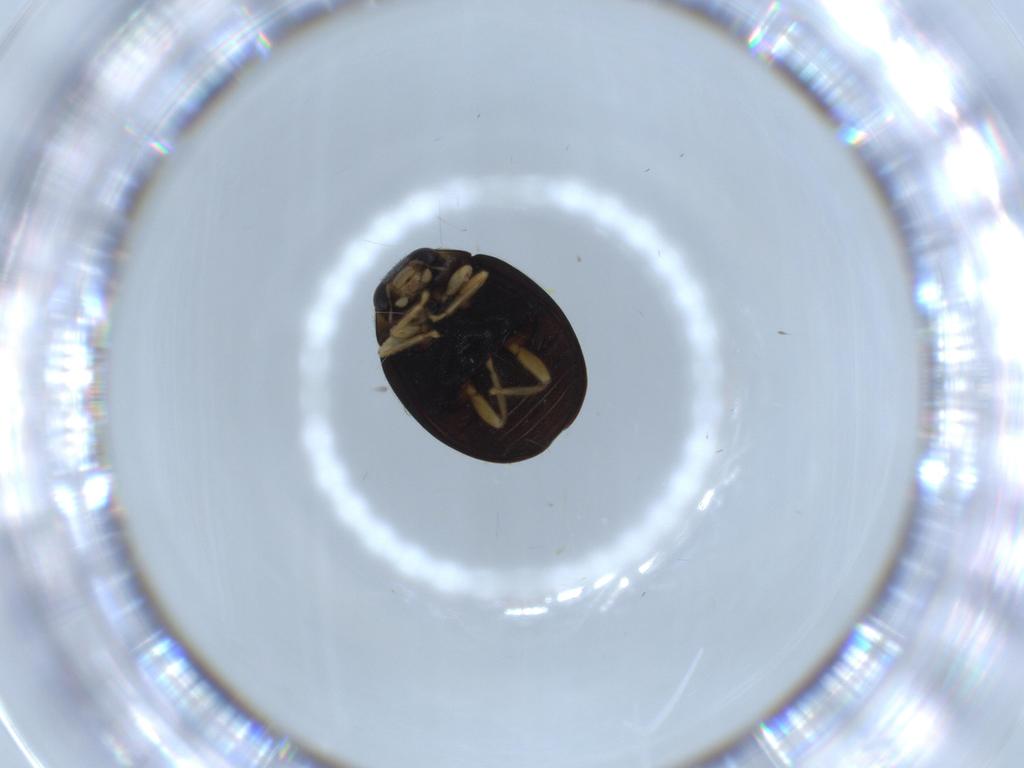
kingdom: Animalia
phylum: Arthropoda
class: Insecta
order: Coleoptera
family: Coccinellidae
